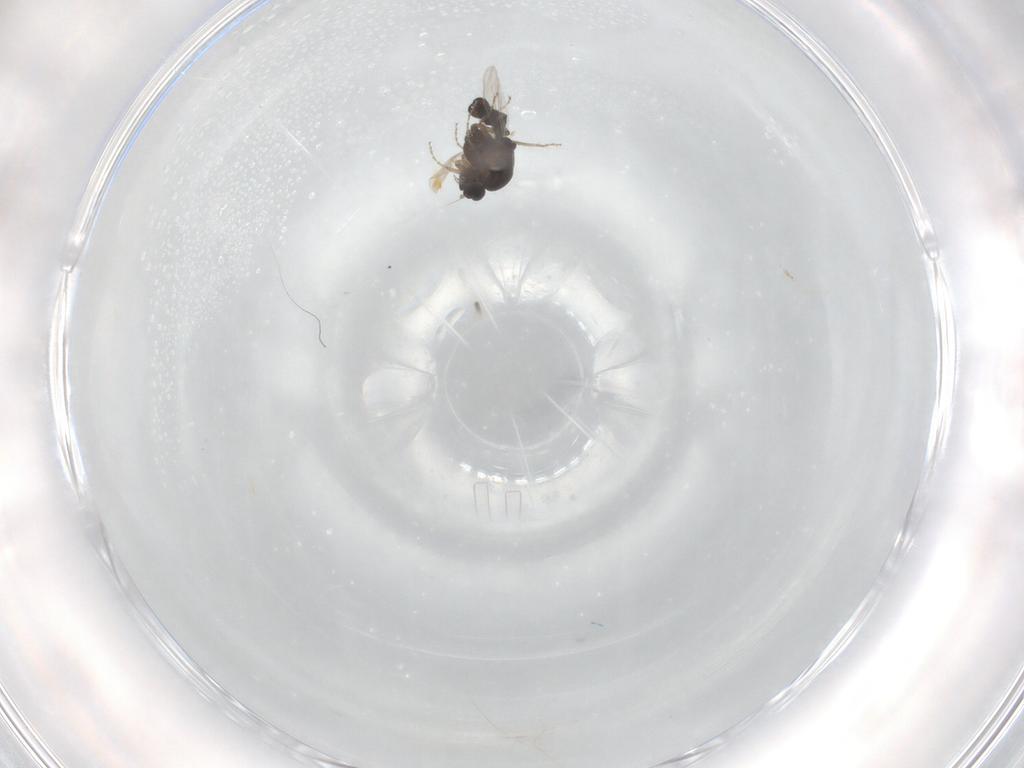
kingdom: Animalia
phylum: Arthropoda
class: Insecta
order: Diptera
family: Ceratopogonidae
